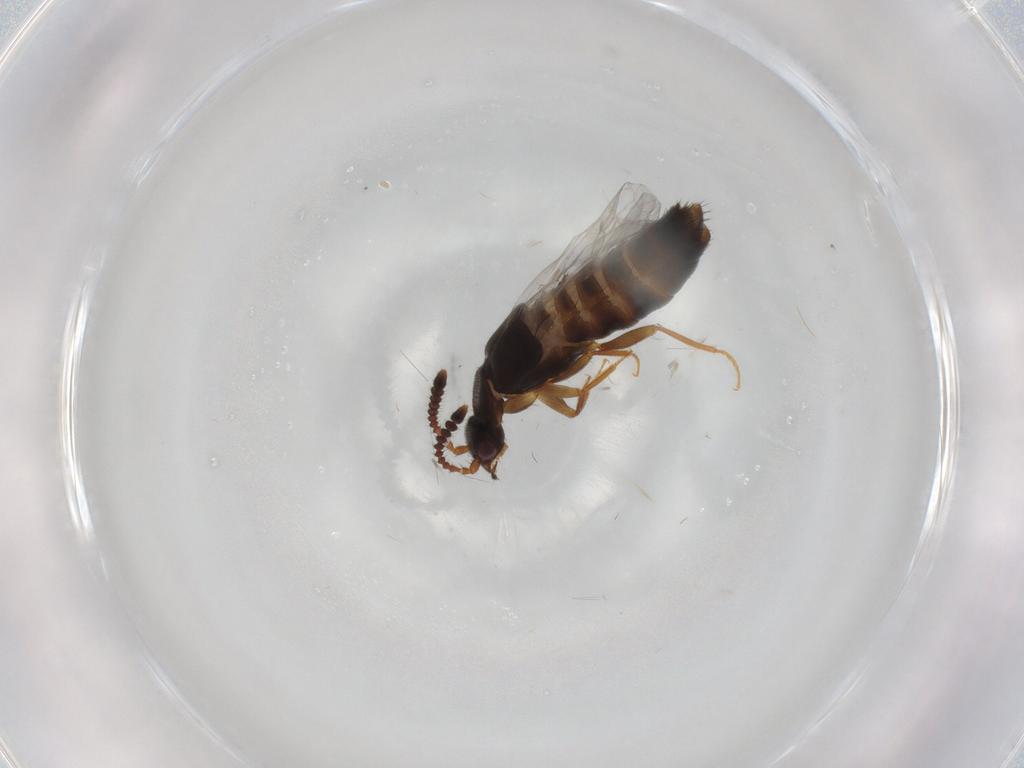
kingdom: Animalia
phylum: Arthropoda
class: Insecta
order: Coleoptera
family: Staphylinidae
